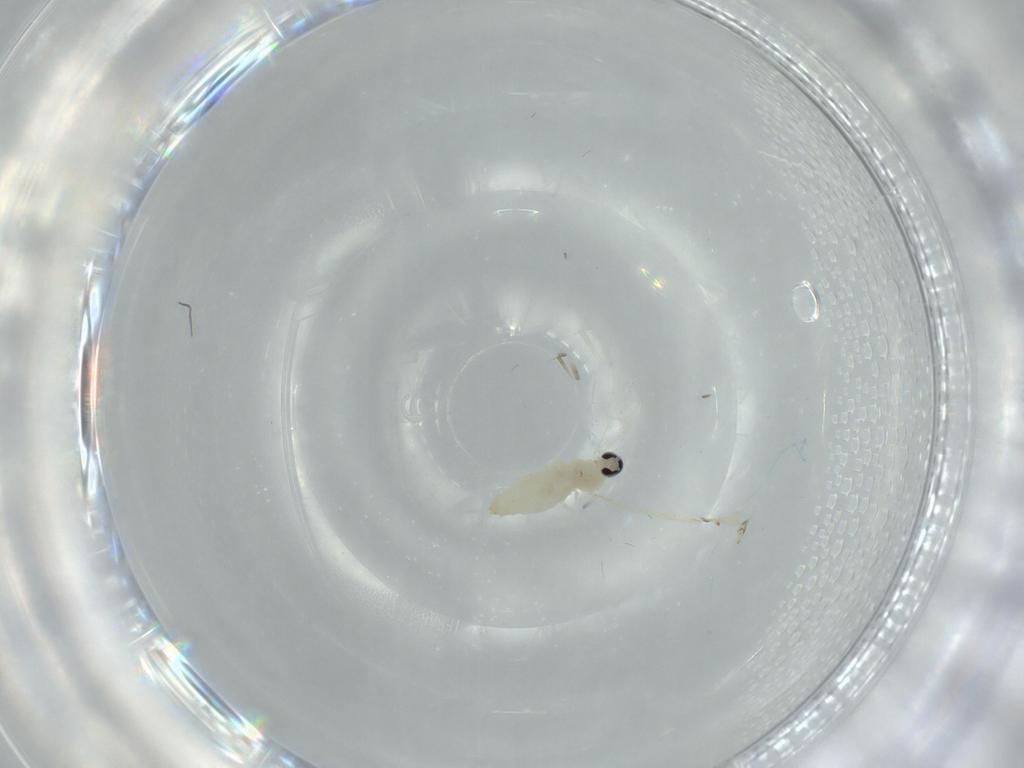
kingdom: Animalia
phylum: Arthropoda
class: Insecta
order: Diptera
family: Cecidomyiidae
